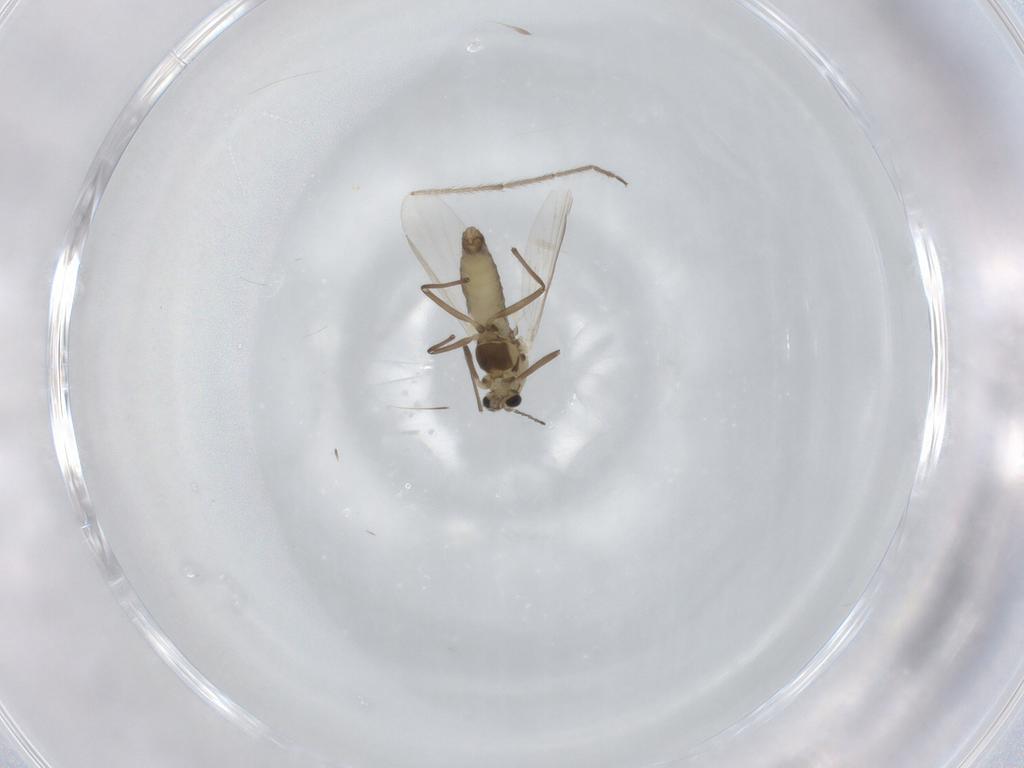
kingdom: Animalia
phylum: Arthropoda
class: Insecta
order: Diptera
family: Chironomidae
